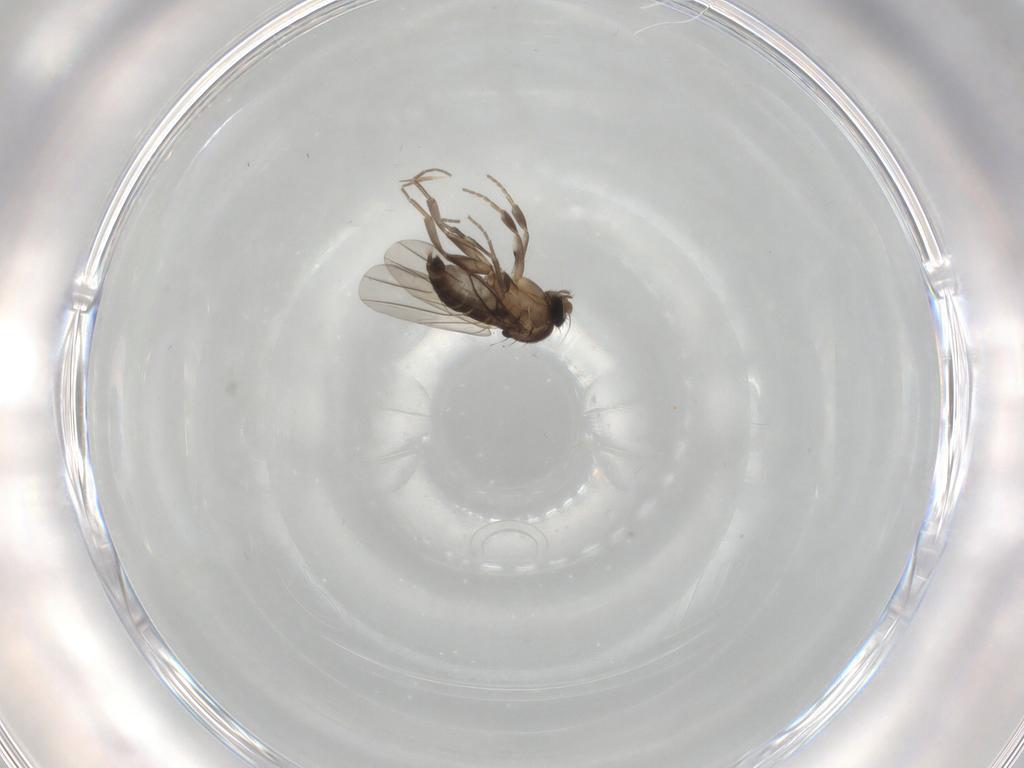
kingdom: Animalia
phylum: Arthropoda
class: Insecta
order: Diptera
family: Phoridae
